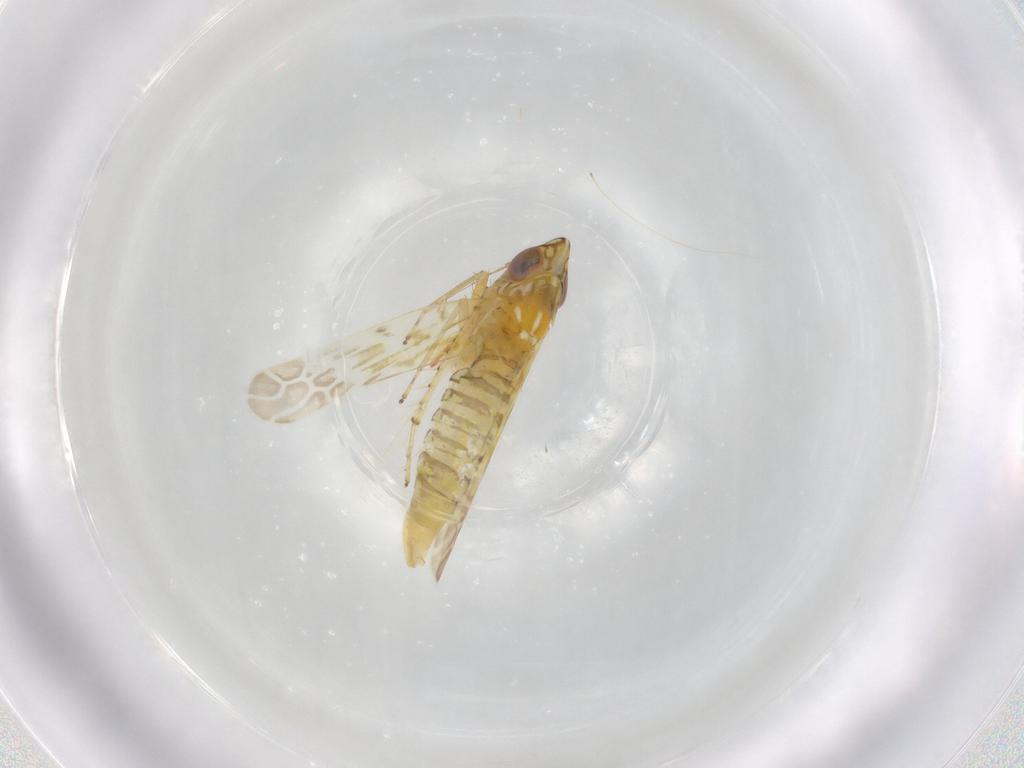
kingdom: Animalia
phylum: Arthropoda
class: Insecta
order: Hemiptera
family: Cicadellidae
